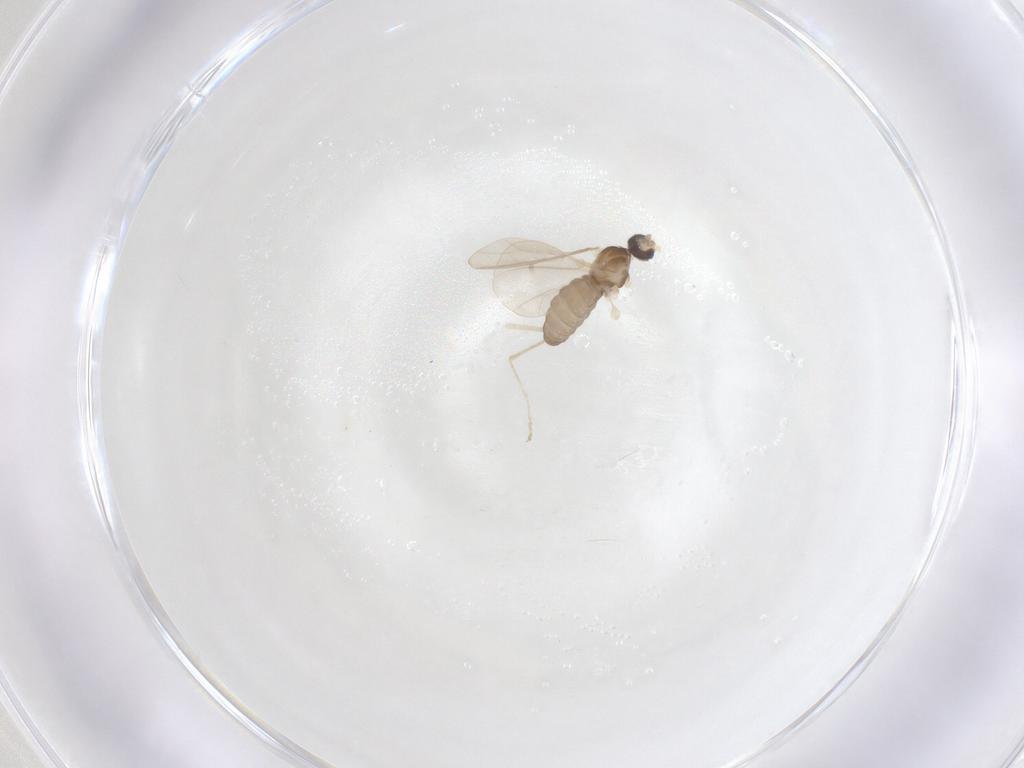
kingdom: Animalia
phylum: Arthropoda
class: Insecta
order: Diptera
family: Cecidomyiidae
